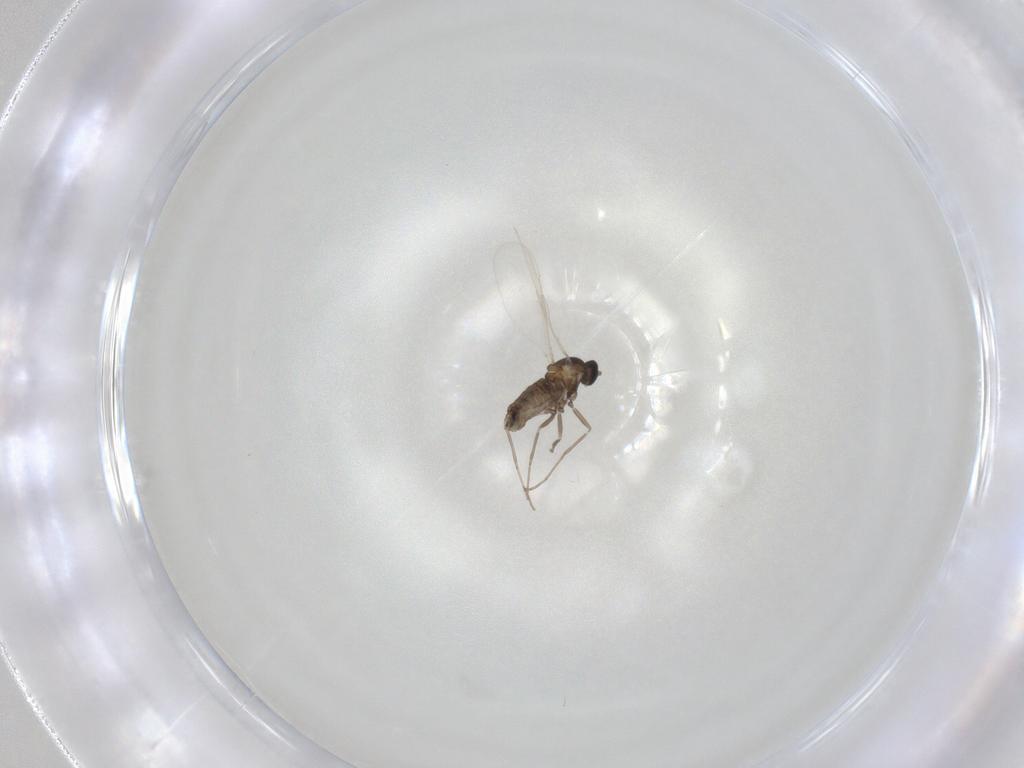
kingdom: Animalia
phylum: Arthropoda
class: Insecta
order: Diptera
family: Cecidomyiidae
